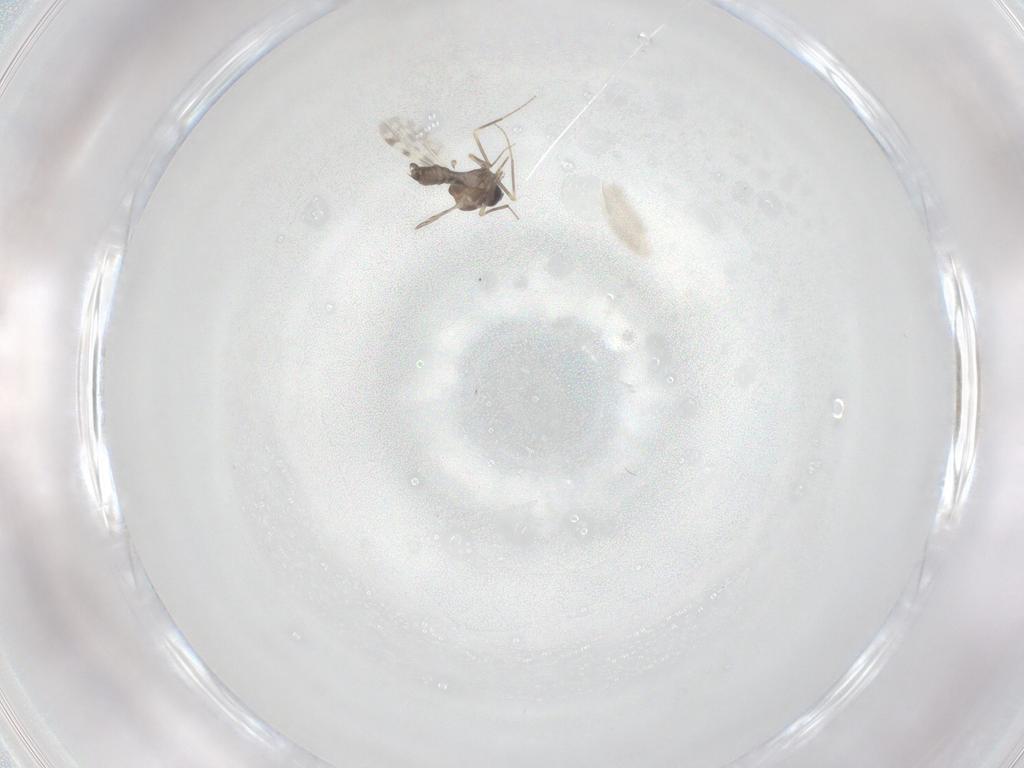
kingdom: Animalia
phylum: Arthropoda
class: Insecta
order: Diptera
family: Ceratopogonidae
